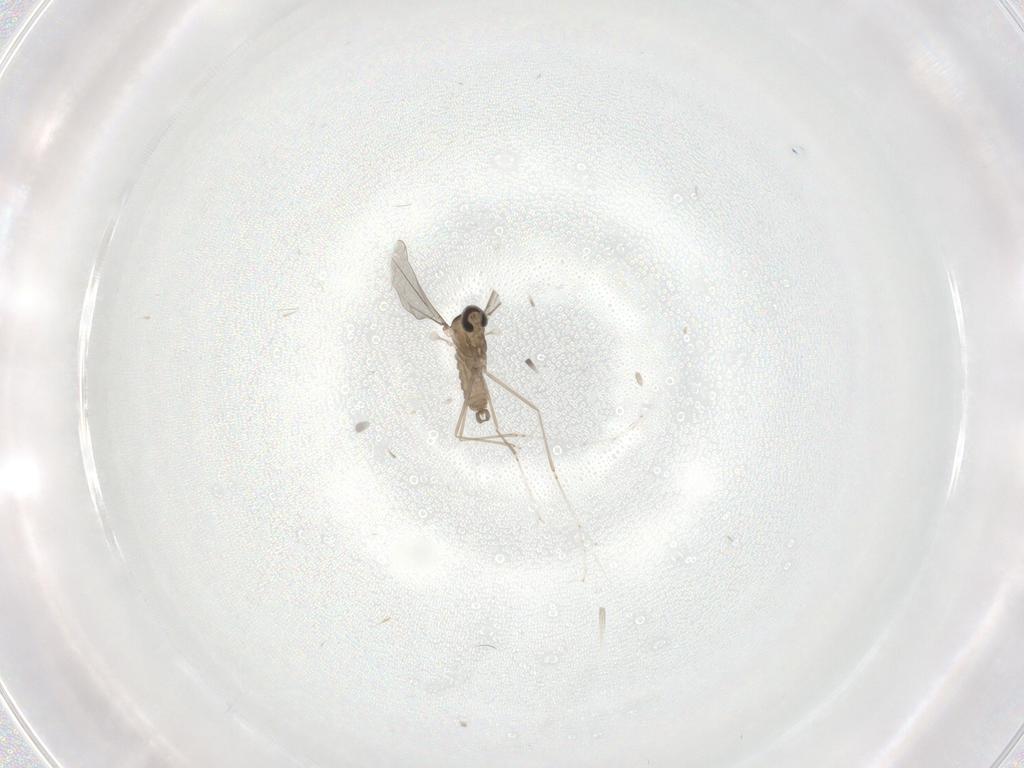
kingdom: Animalia
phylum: Arthropoda
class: Insecta
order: Diptera
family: Cecidomyiidae
